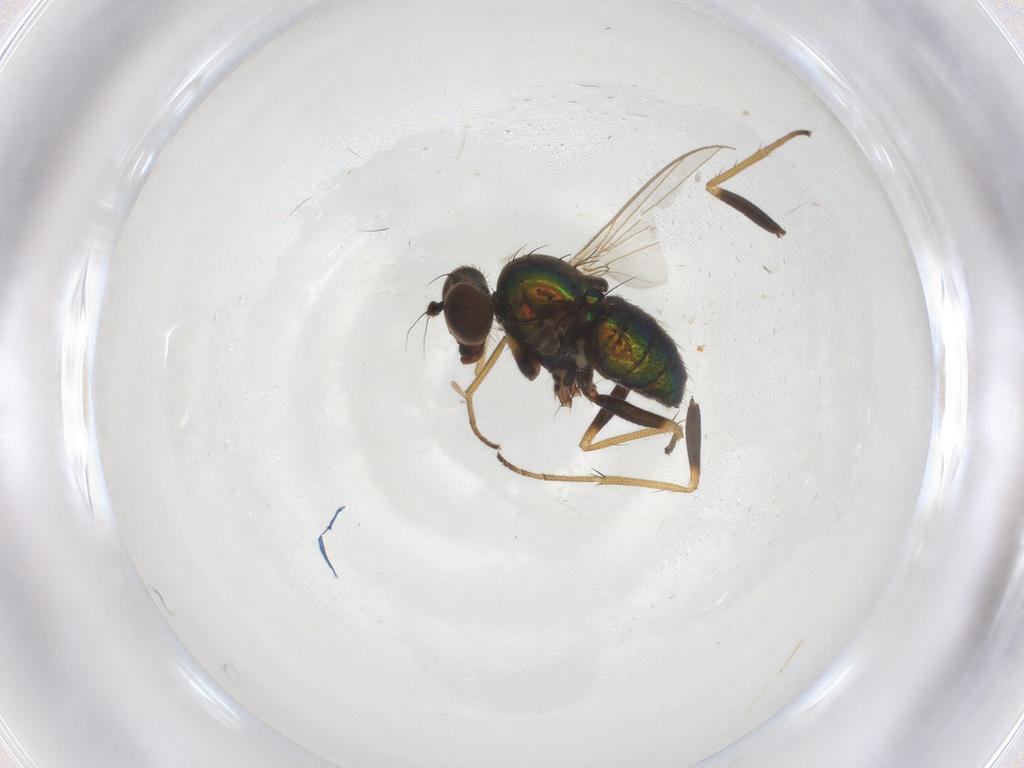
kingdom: Animalia
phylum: Arthropoda
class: Insecta
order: Diptera
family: Dolichopodidae
